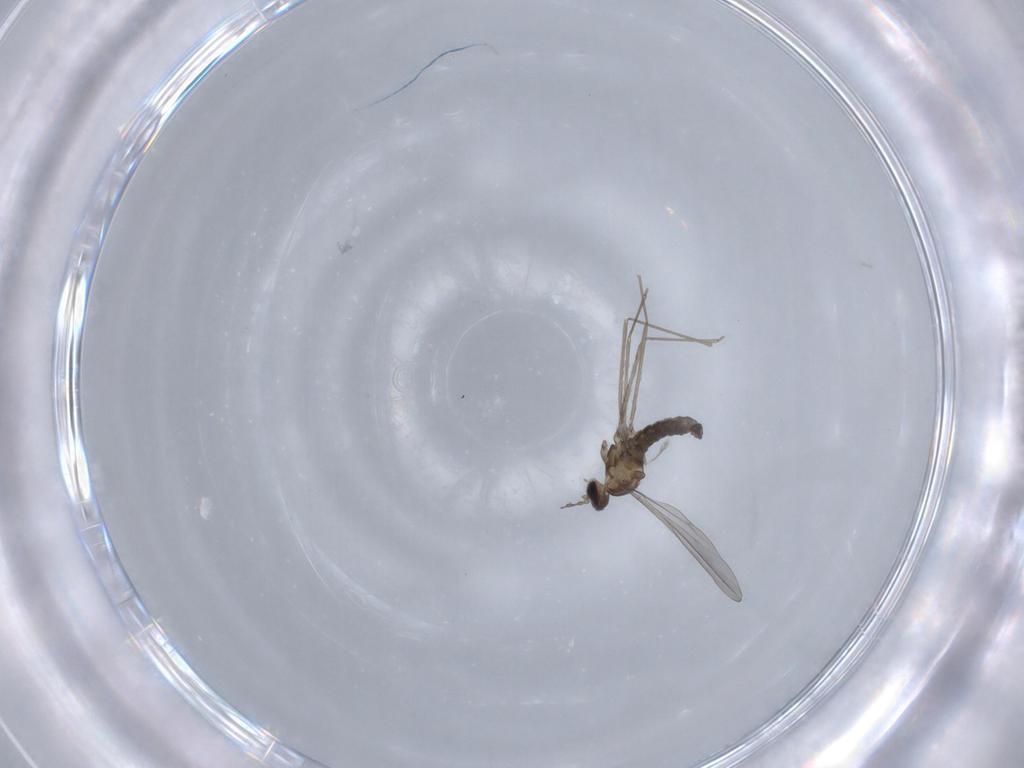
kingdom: Animalia
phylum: Arthropoda
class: Insecta
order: Diptera
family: Cecidomyiidae
